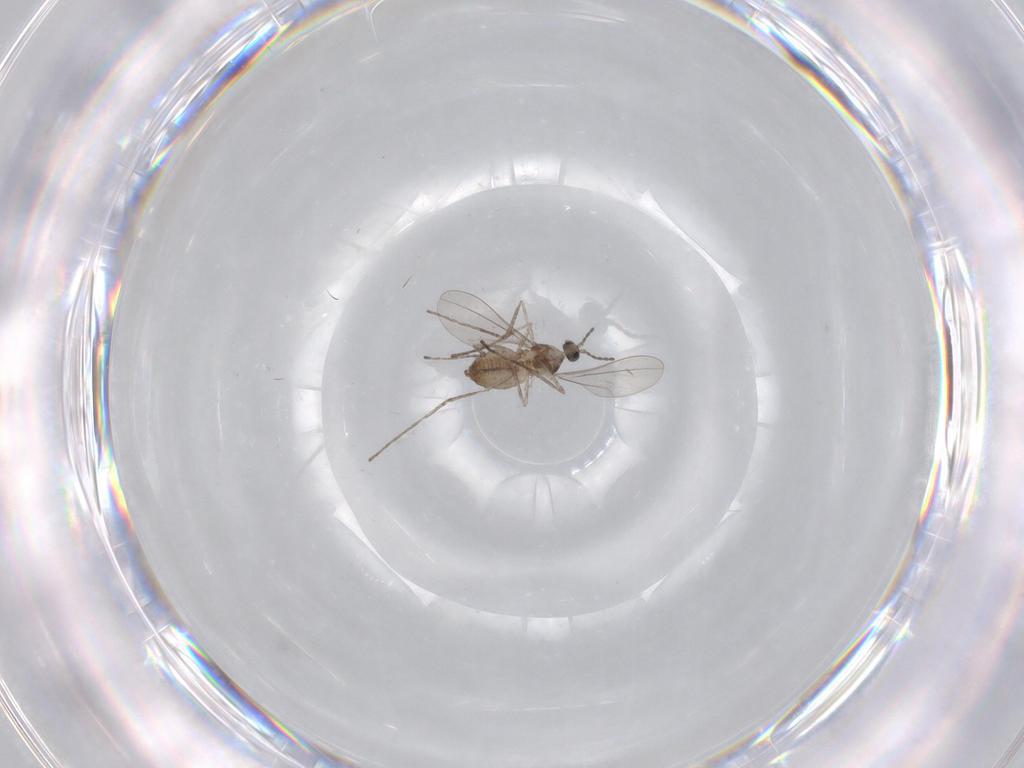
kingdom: Animalia
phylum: Arthropoda
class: Insecta
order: Diptera
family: Cecidomyiidae
